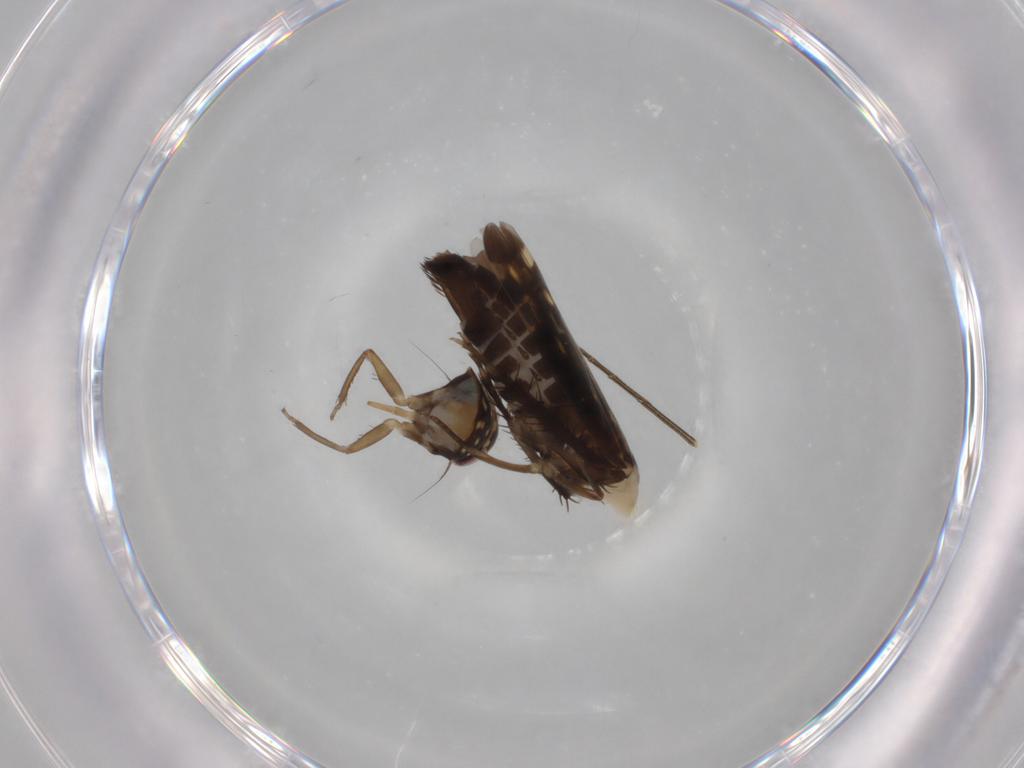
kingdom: Animalia
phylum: Arthropoda
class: Insecta
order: Hemiptera
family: Cicadellidae
